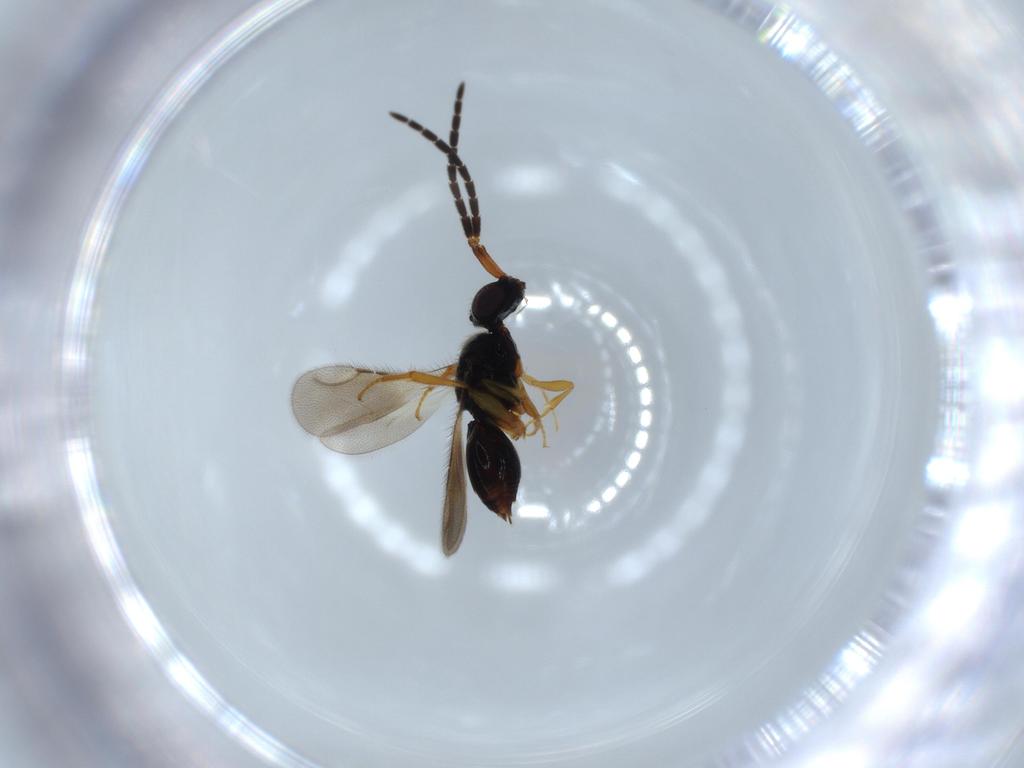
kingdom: Animalia
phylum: Arthropoda
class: Insecta
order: Hymenoptera
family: Ceraphronidae
